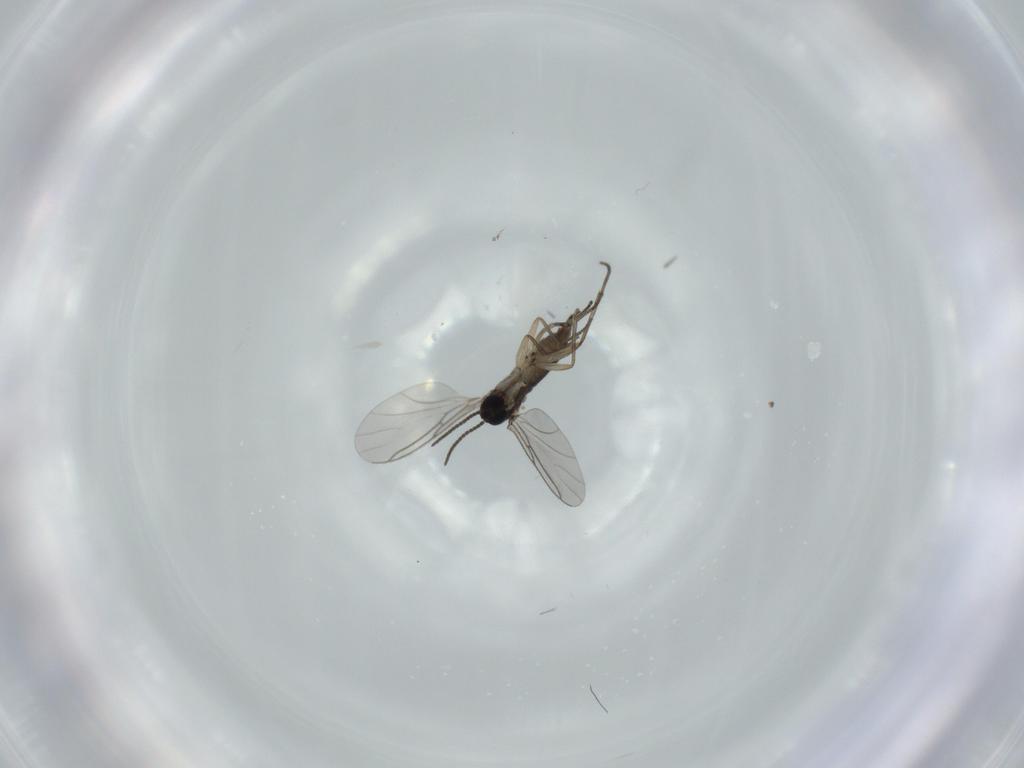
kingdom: Animalia
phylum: Arthropoda
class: Insecta
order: Diptera
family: Sciaridae
